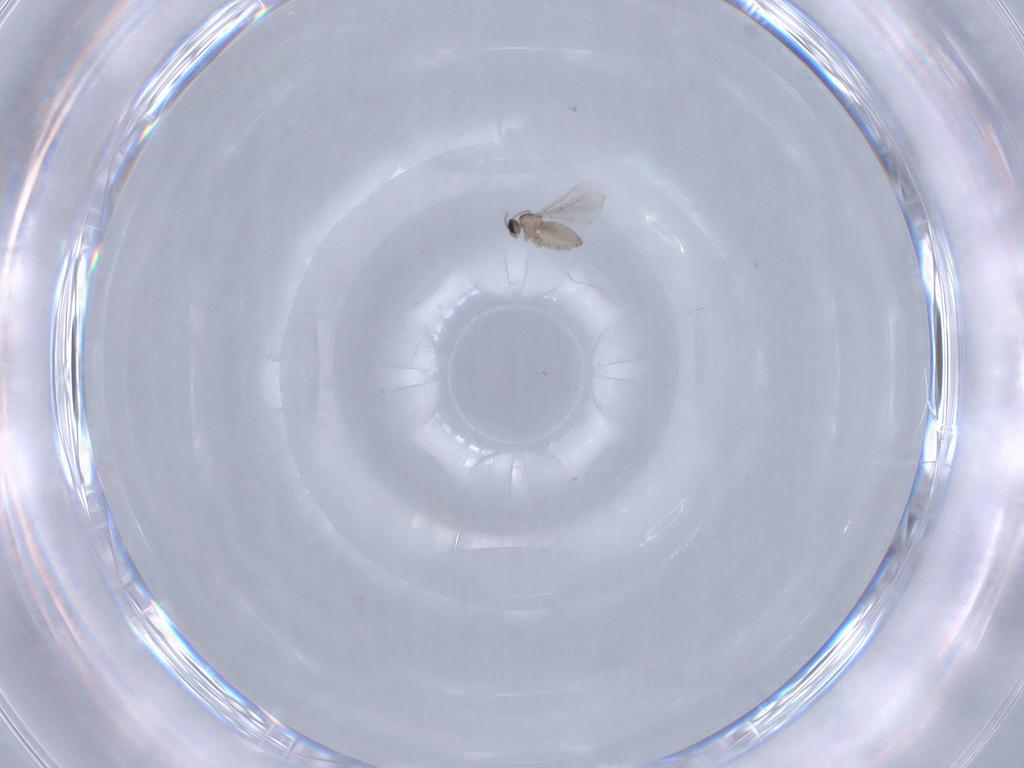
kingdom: Animalia
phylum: Arthropoda
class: Insecta
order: Diptera
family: Cecidomyiidae
